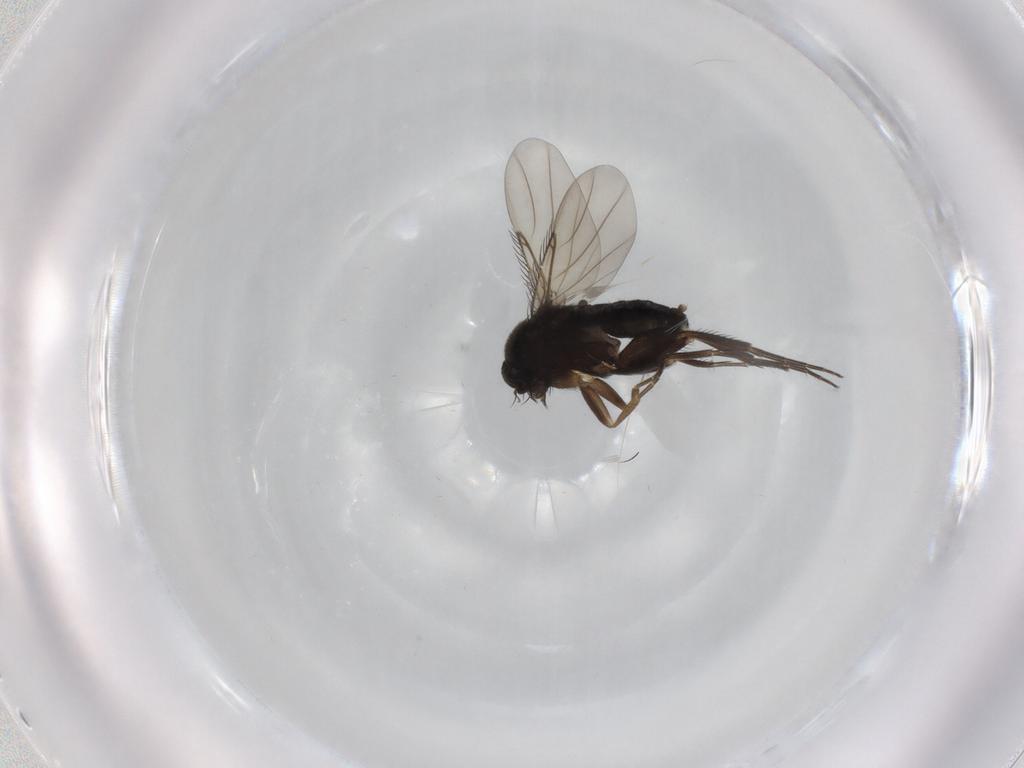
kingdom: Animalia
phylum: Arthropoda
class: Insecta
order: Diptera
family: Phoridae
